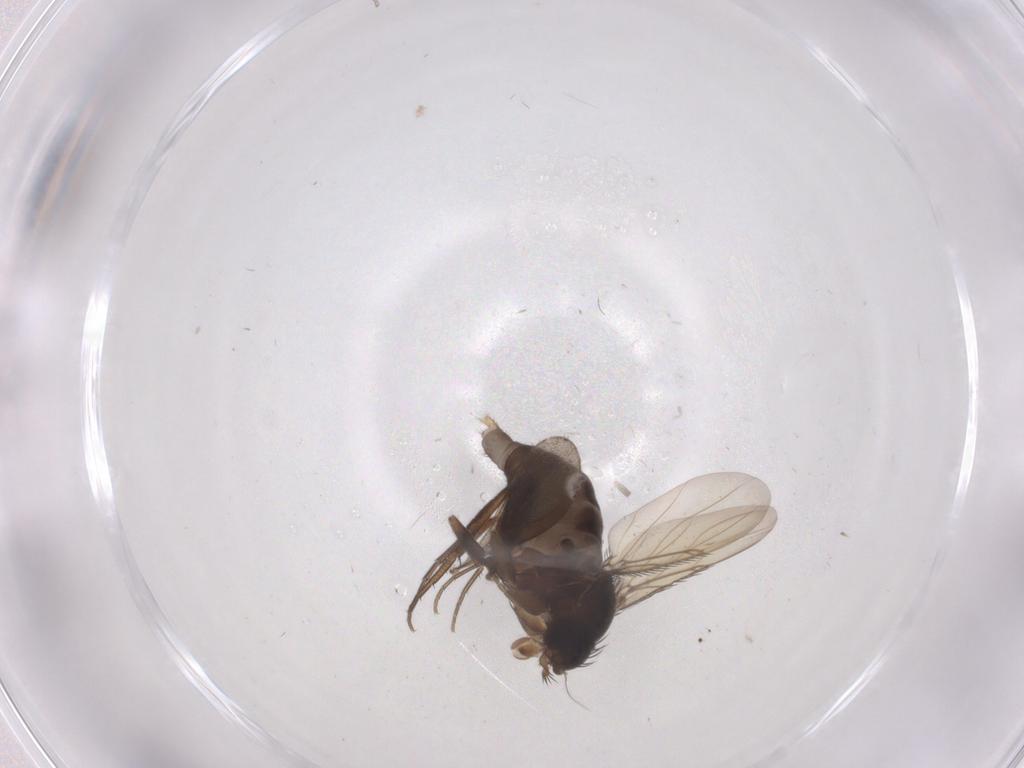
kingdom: Animalia
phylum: Arthropoda
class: Insecta
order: Diptera
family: Phoridae
